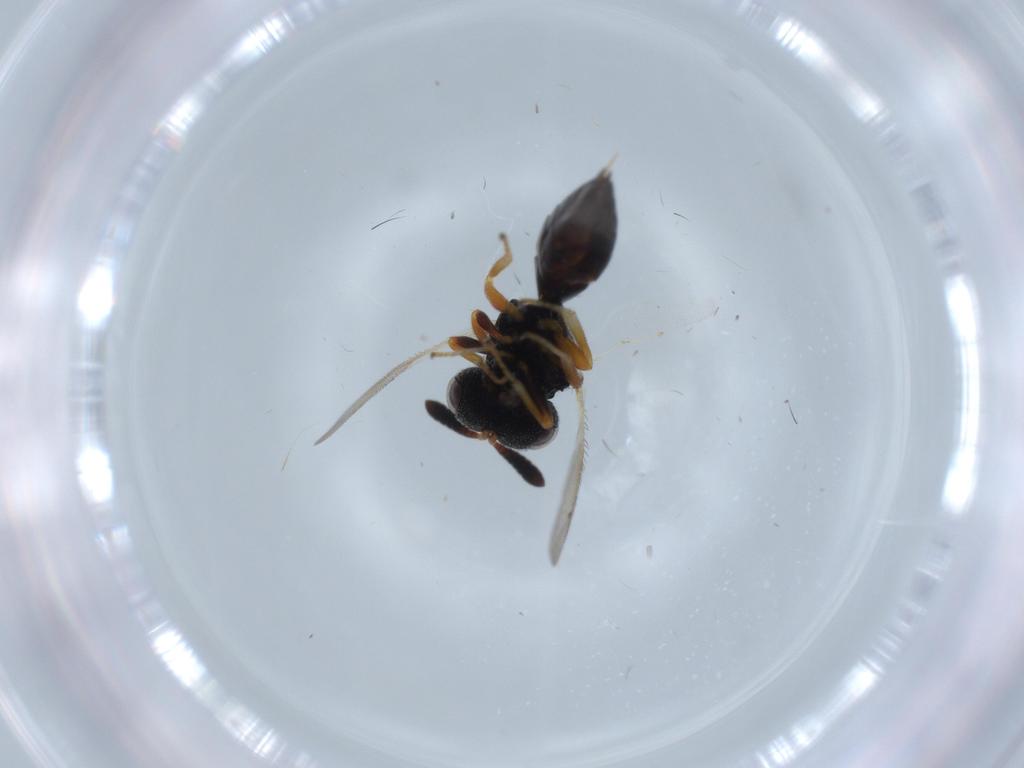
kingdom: Animalia
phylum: Arthropoda
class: Insecta
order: Hymenoptera
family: Agaonidae
